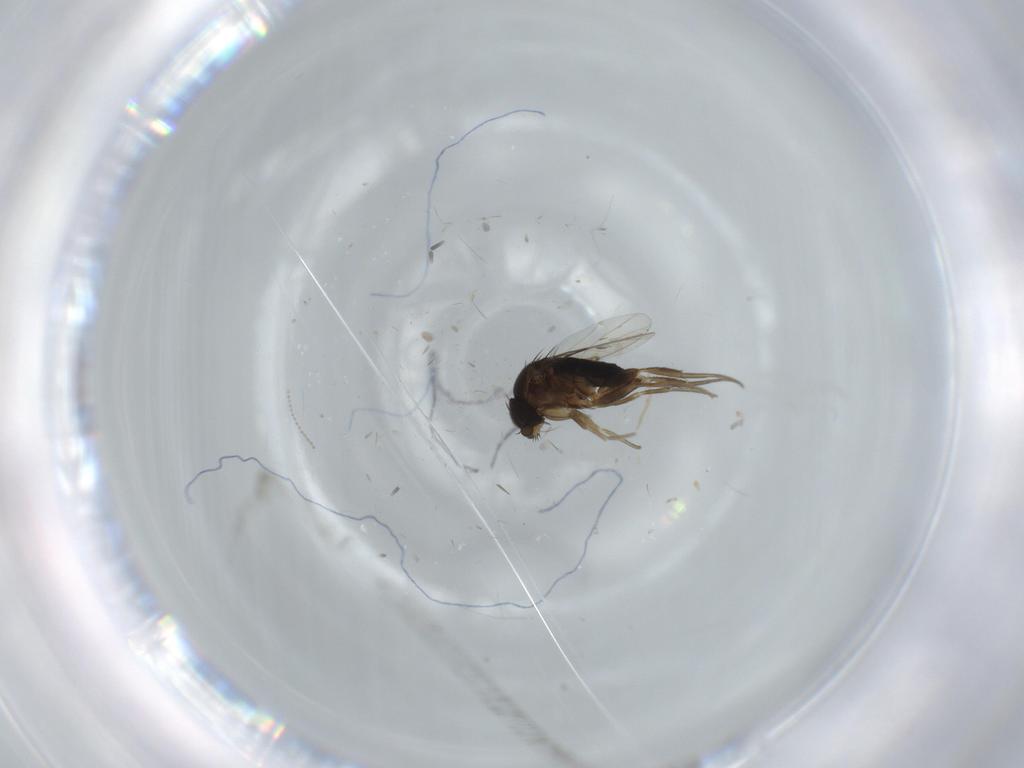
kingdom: Animalia
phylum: Arthropoda
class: Insecta
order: Diptera
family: Phoridae
